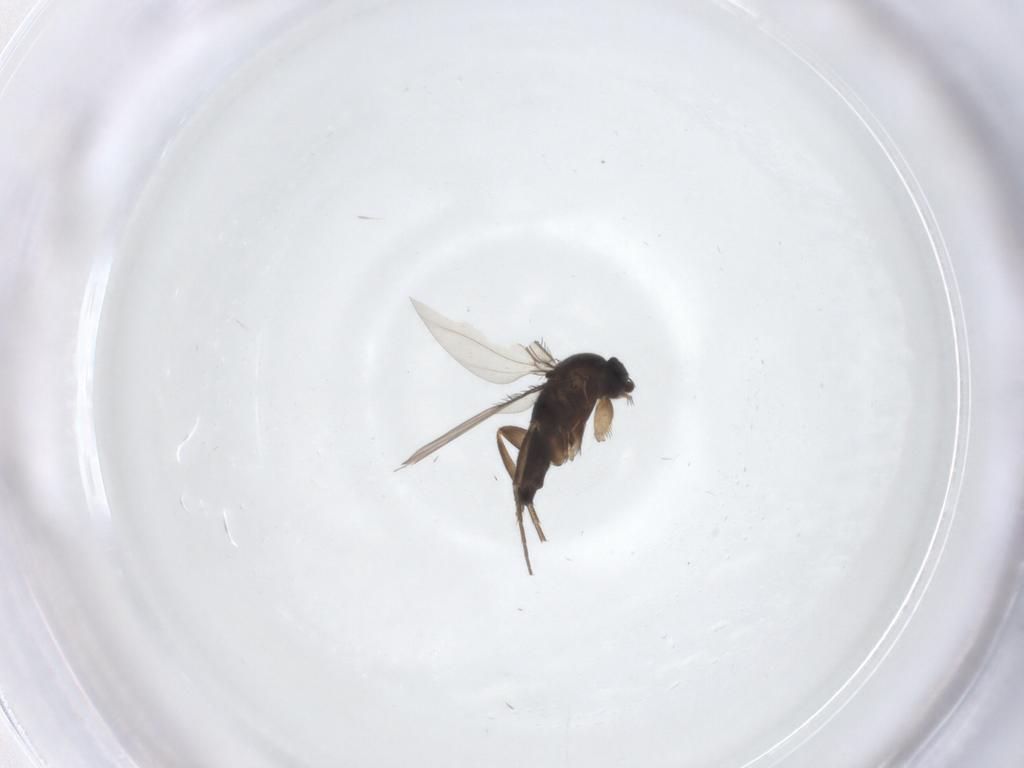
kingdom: Animalia
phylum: Arthropoda
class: Insecta
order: Diptera
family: Phoridae
